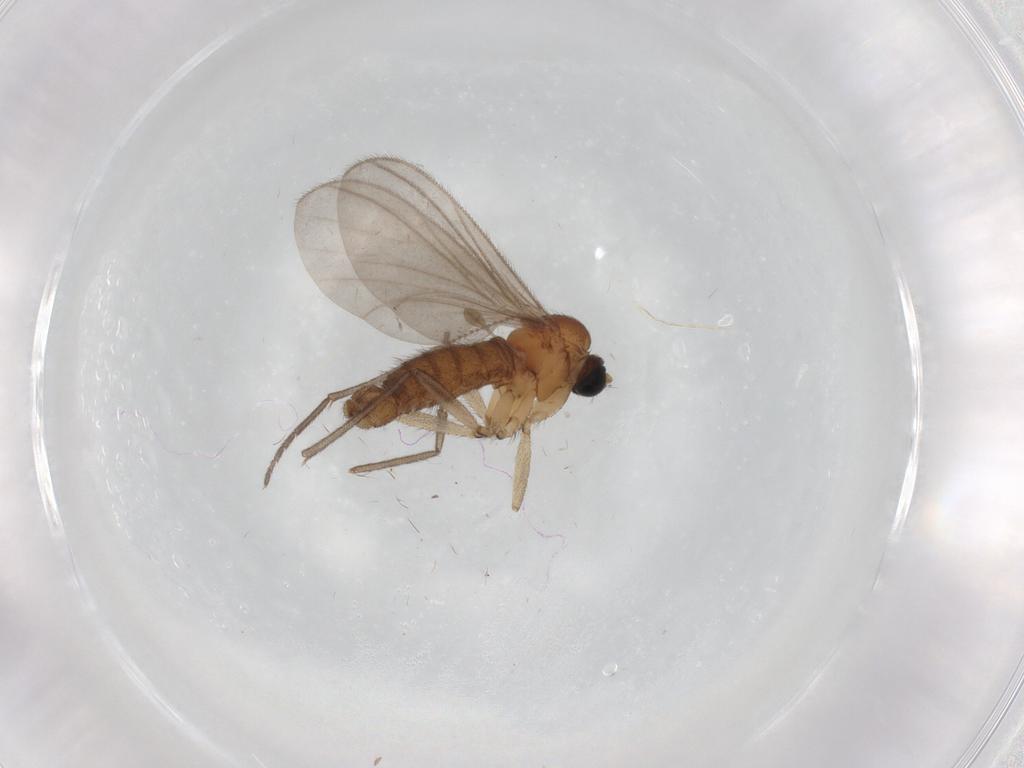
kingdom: Animalia
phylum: Arthropoda
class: Insecta
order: Diptera
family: Sciaridae
